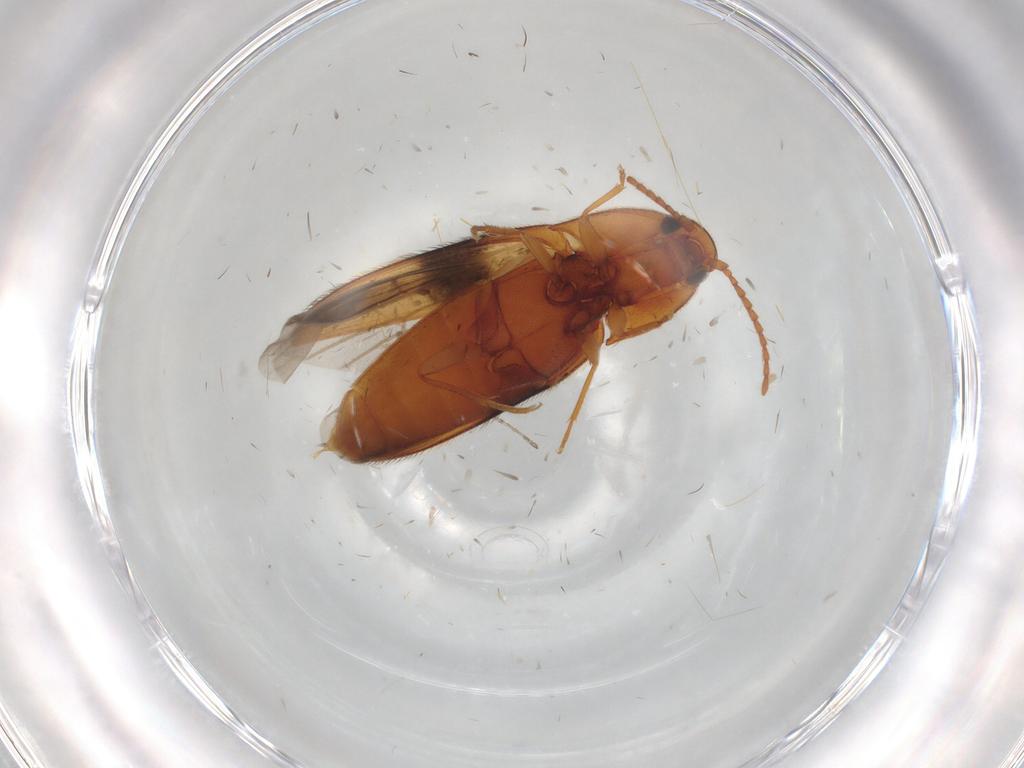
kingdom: Animalia
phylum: Arthropoda
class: Insecta
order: Coleoptera
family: Elateridae
